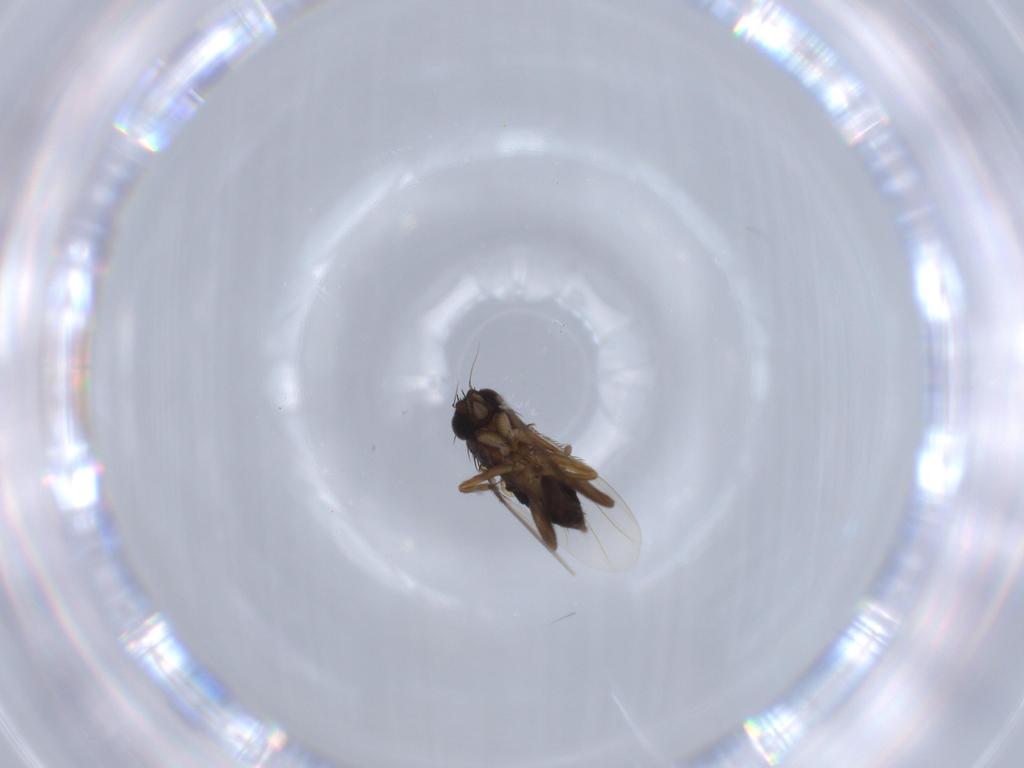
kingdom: Animalia
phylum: Arthropoda
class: Insecta
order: Diptera
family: Phoridae
